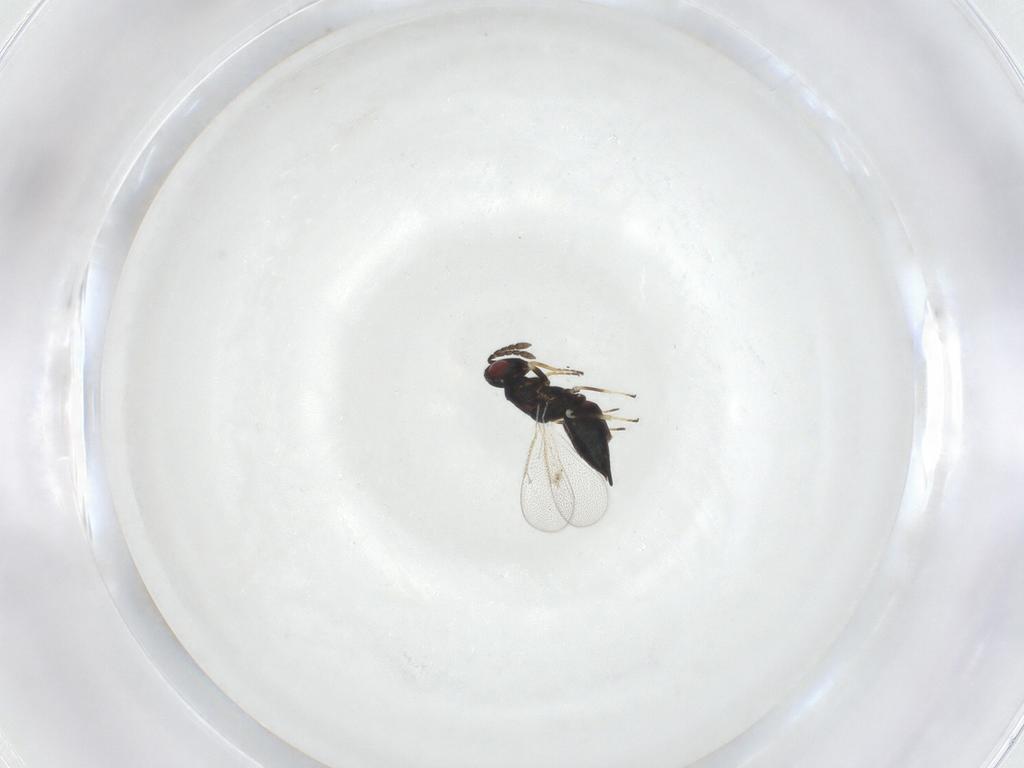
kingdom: Animalia
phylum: Arthropoda
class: Insecta
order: Hymenoptera
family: Eulophidae
